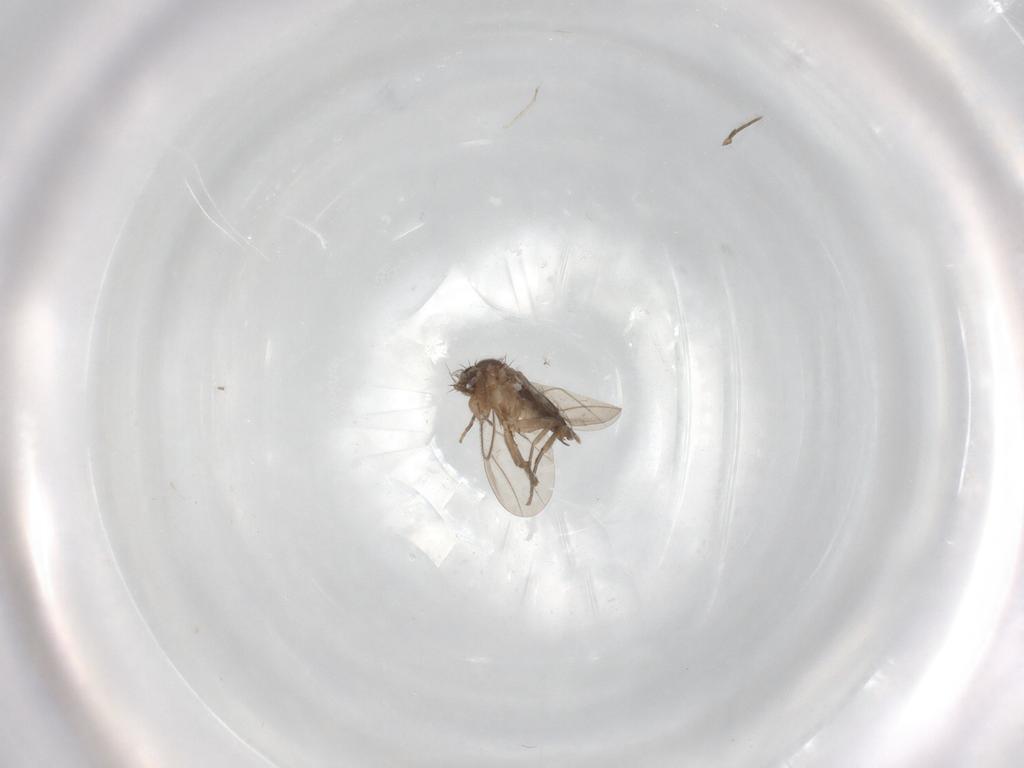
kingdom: Animalia
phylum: Arthropoda
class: Insecta
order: Diptera
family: Phoridae
